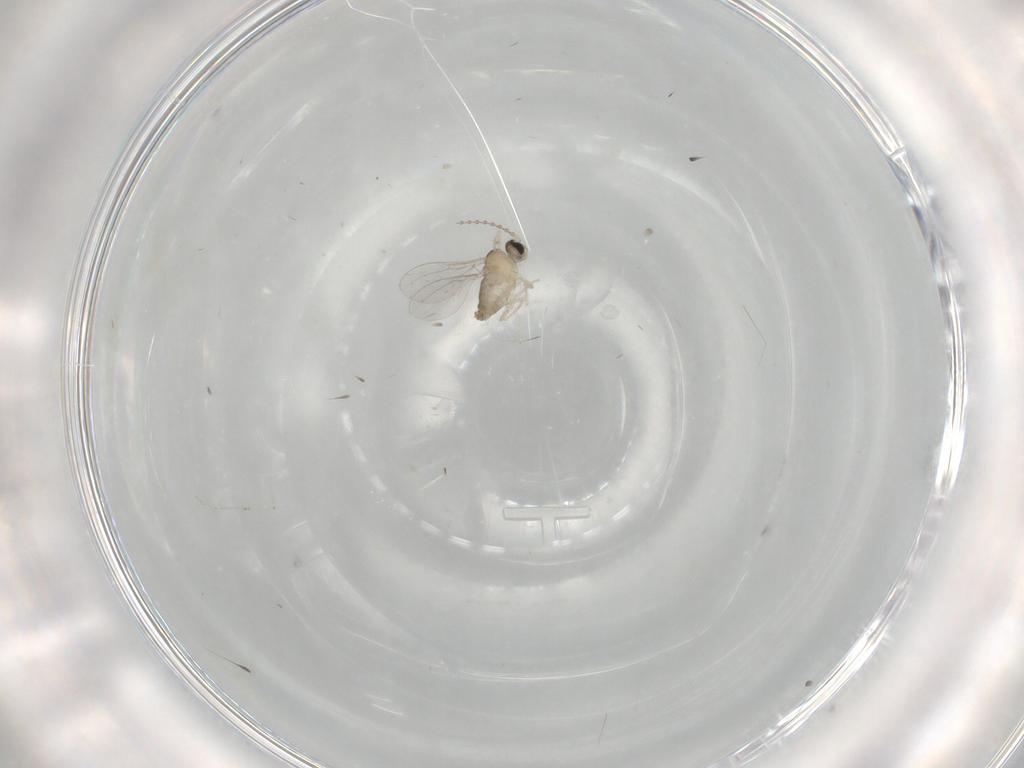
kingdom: Animalia
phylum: Arthropoda
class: Insecta
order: Diptera
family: Cecidomyiidae
